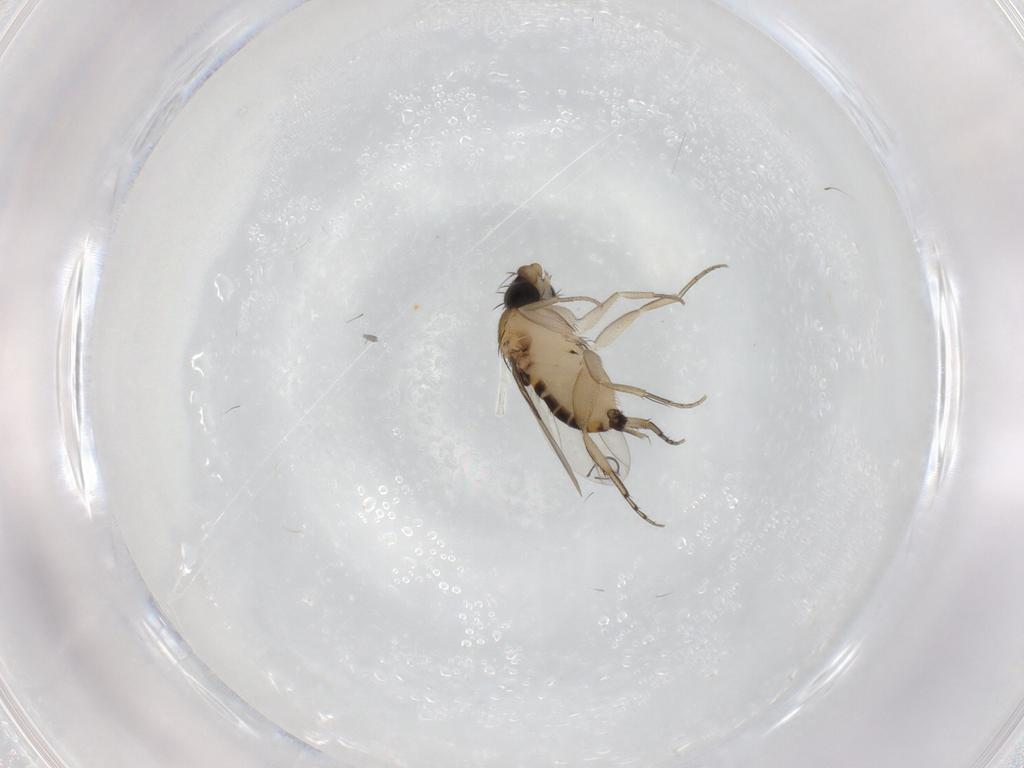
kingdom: Animalia
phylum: Arthropoda
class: Insecta
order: Diptera
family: Phoridae
